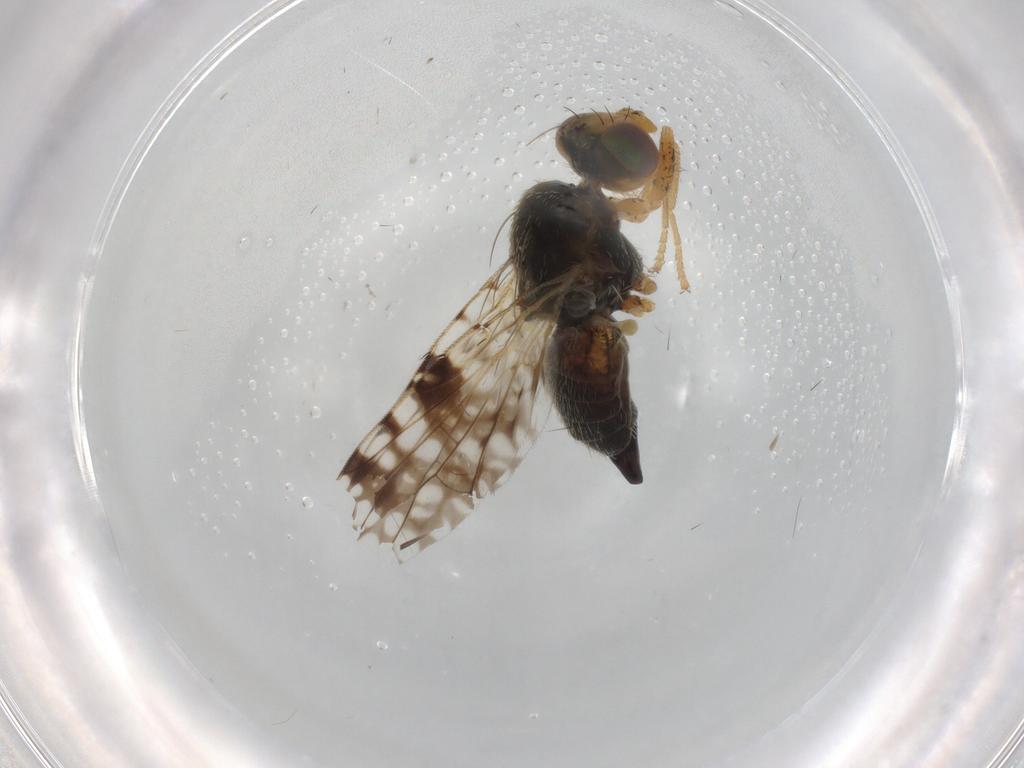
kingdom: Animalia
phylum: Arthropoda
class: Insecta
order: Diptera
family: Tephritidae
